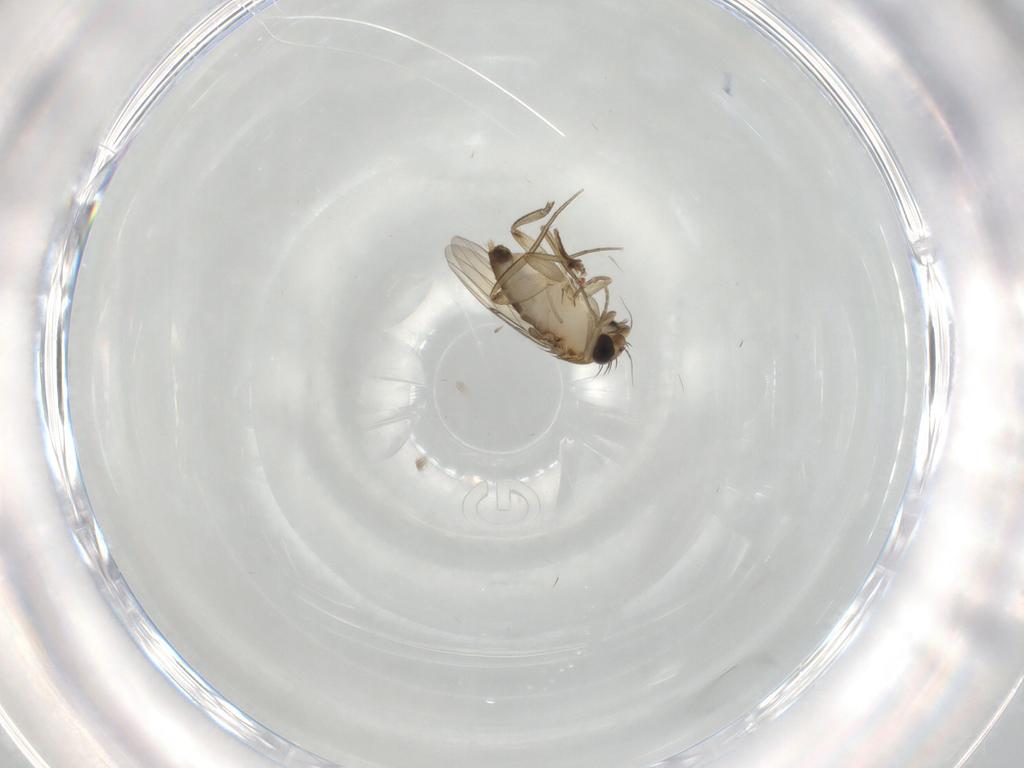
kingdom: Animalia
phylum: Arthropoda
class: Insecta
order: Diptera
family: Phoridae
